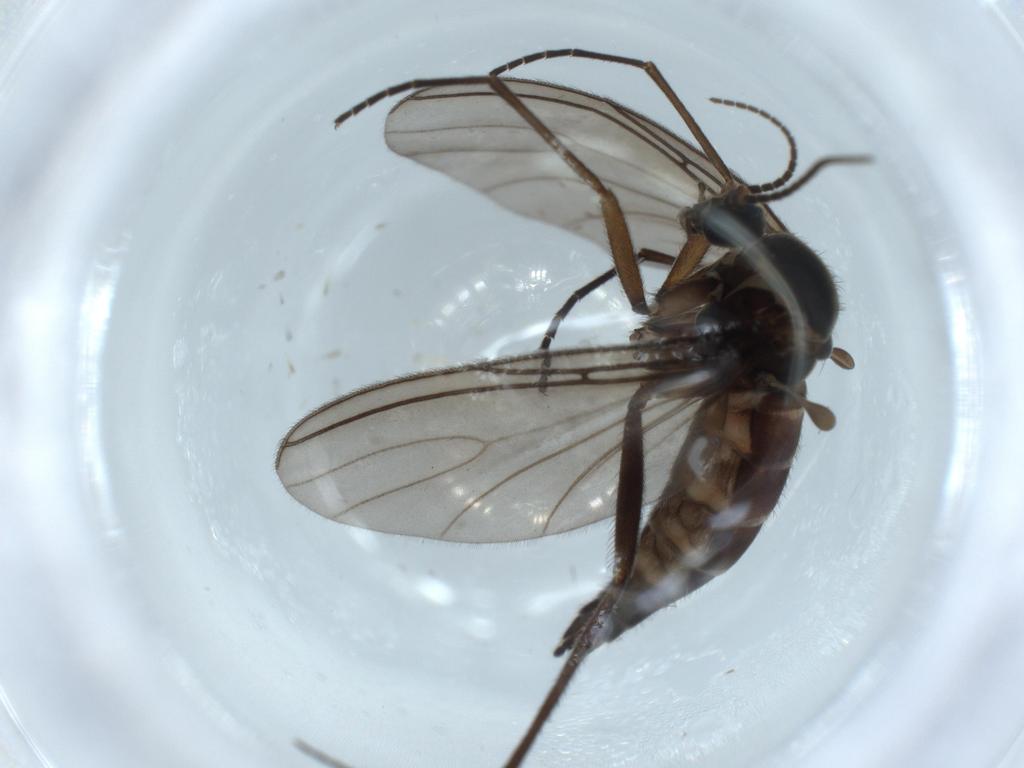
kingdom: Animalia
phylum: Arthropoda
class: Insecta
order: Diptera
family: Sciaridae
